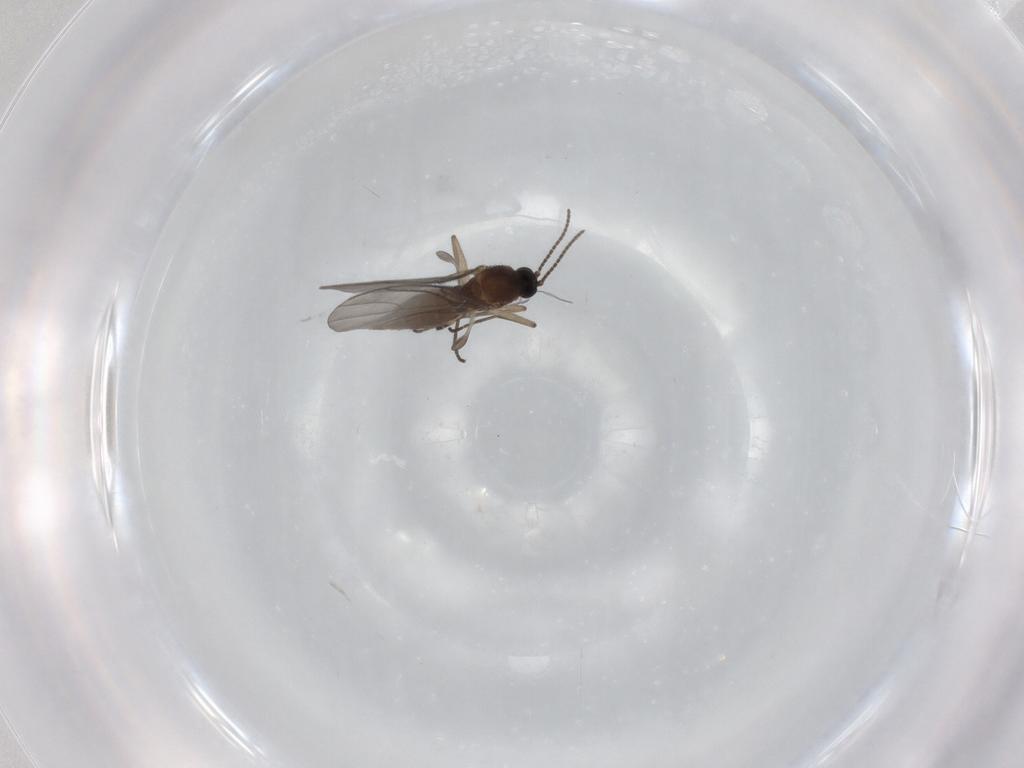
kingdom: Animalia
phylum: Arthropoda
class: Insecta
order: Diptera
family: Sciaridae
